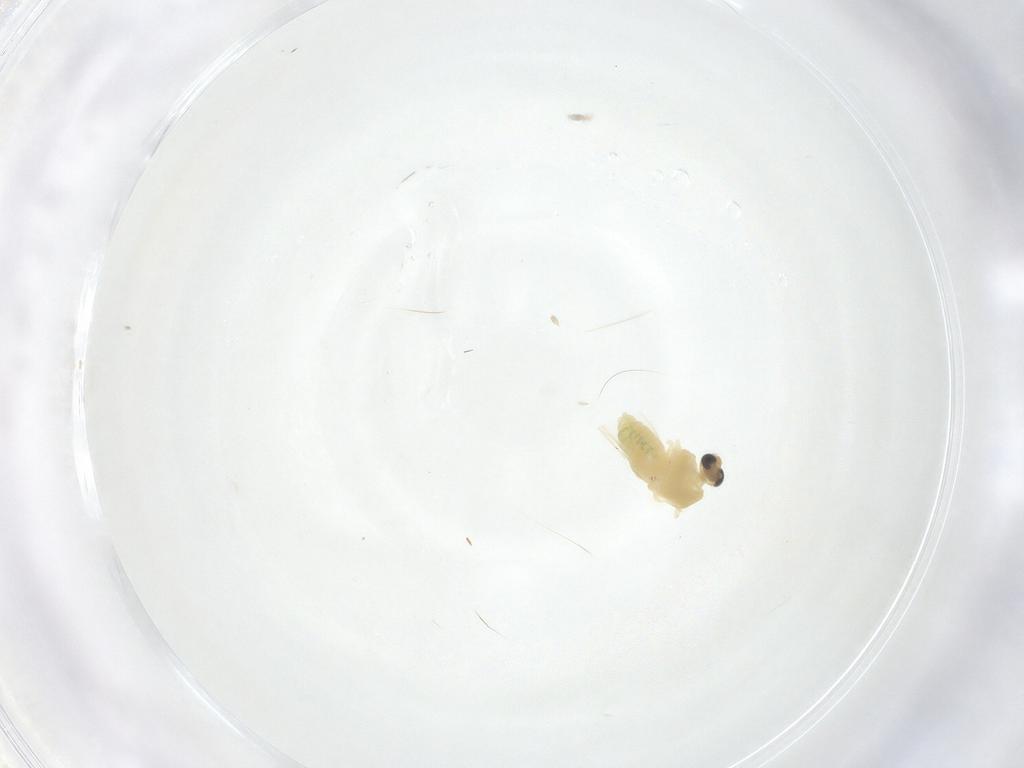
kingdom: Animalia
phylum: Arthropoda
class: Insecta
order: Diptera
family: Chironomidae
